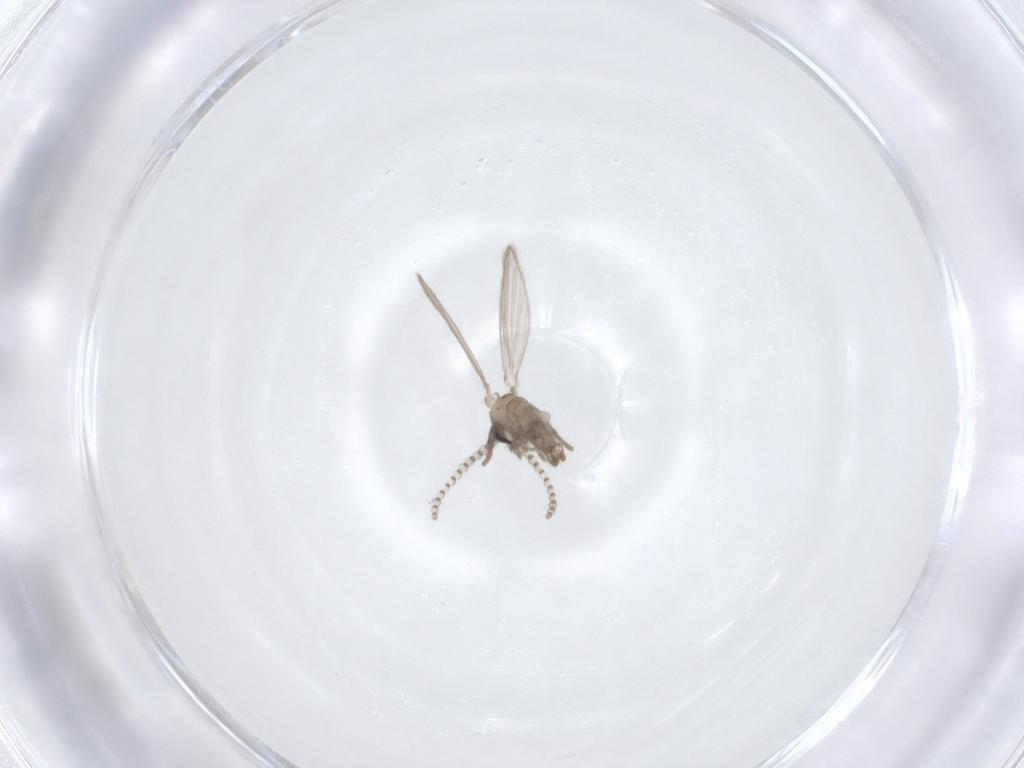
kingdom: Animalia
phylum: Arthropoda
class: Insecta
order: Diptera
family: Psychodidae
